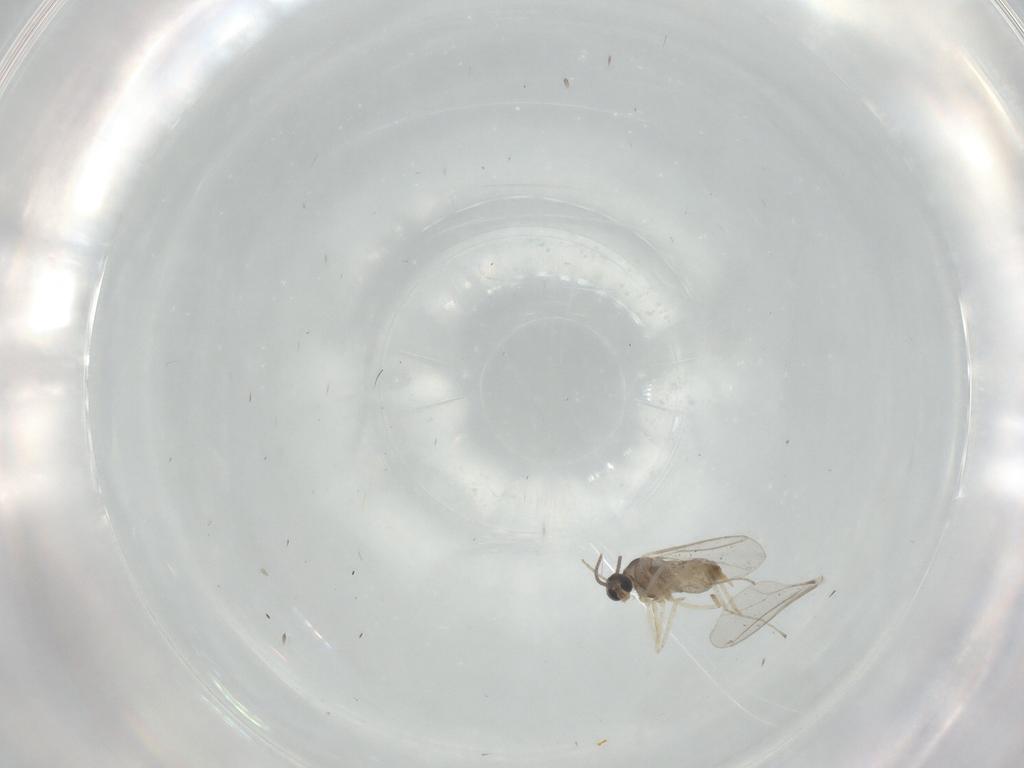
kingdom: Animalia
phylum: Arthropoda
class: Insecta
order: Diptera
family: Cecidomyiidae
